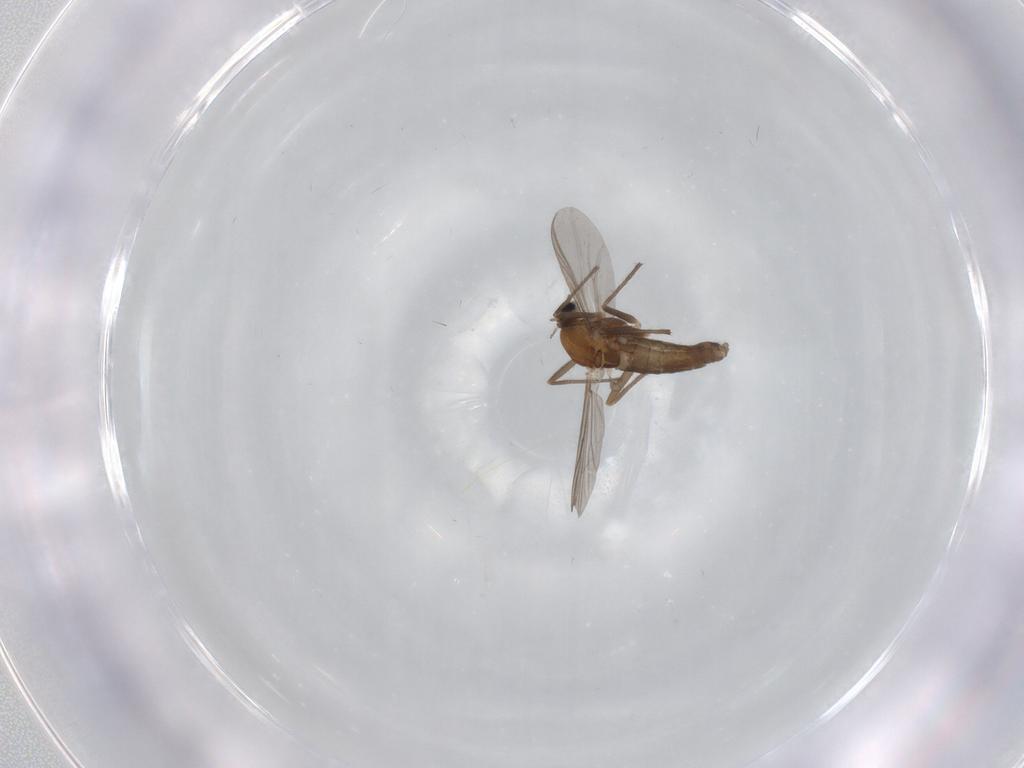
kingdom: Animalia
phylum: Arthropoda
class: Insecta
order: Diptera
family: Chironomidae
